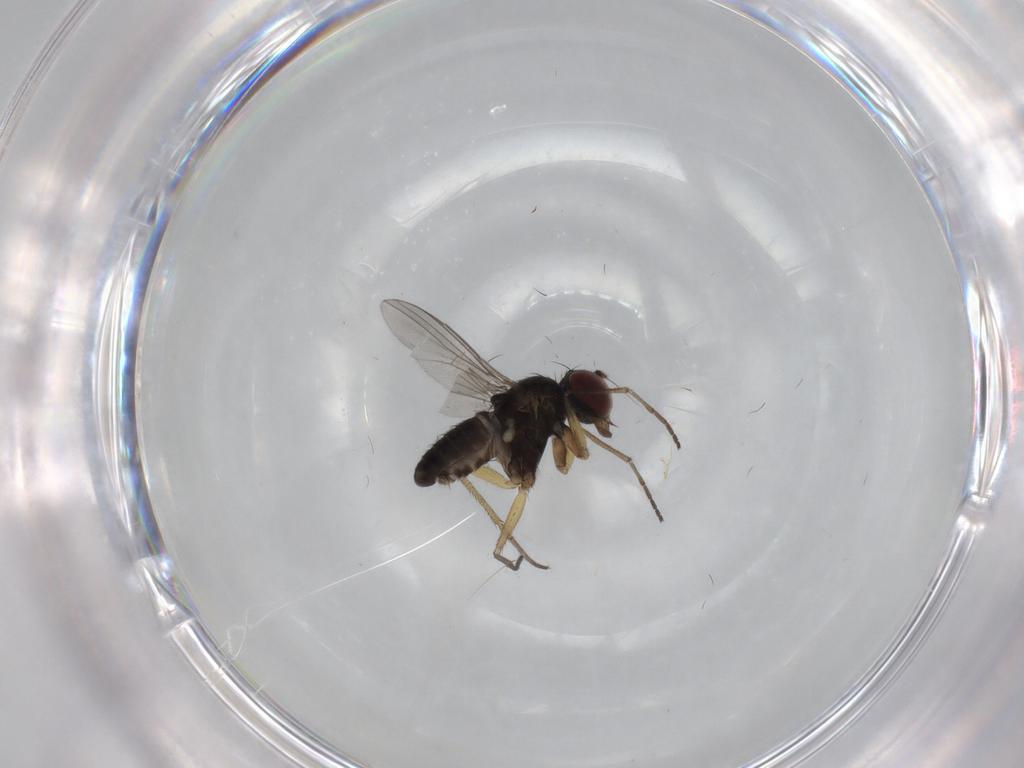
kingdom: Animalia
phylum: Arthropoda
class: Insecta
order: Diptera
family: Dolichopodidae
